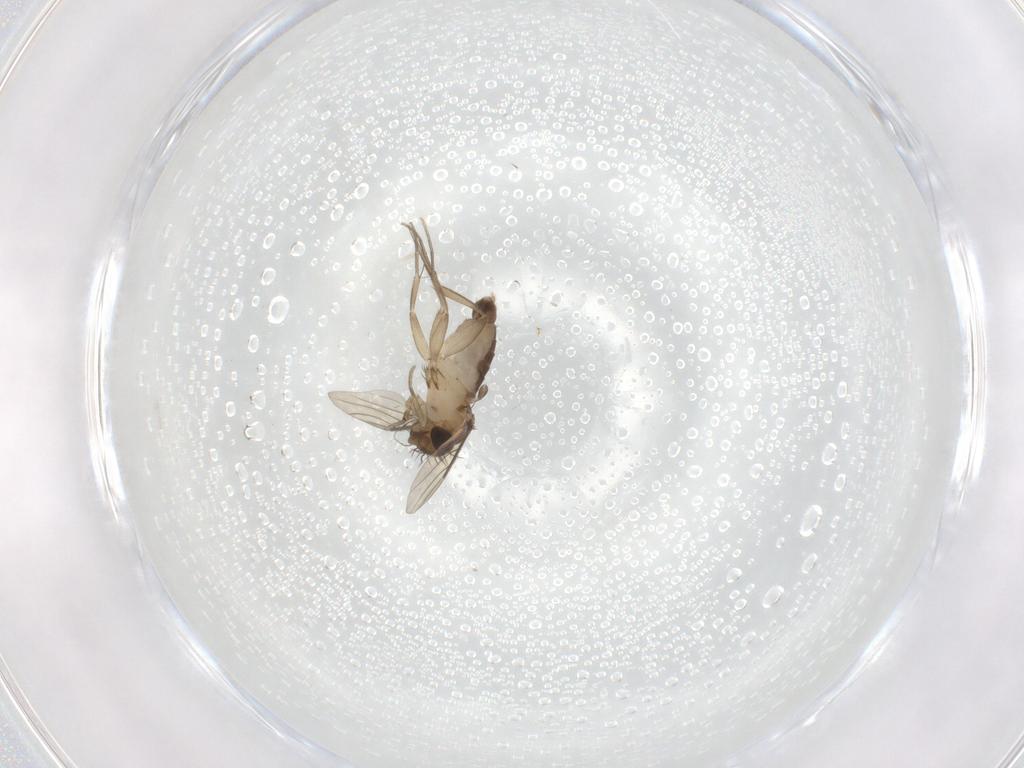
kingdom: Animalia
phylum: Arthropoda
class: Insecta
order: Diptera
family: Phoridae
